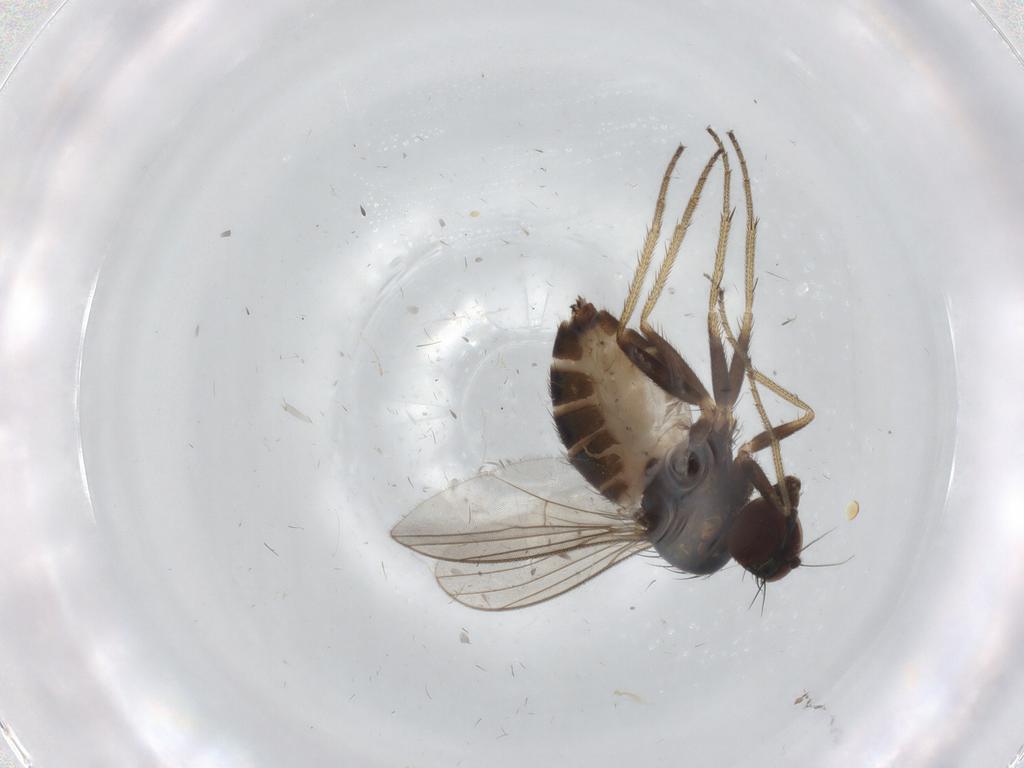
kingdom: Animalia
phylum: Arthropoda
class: Insecta
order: Diptera
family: Dolichopodidae
